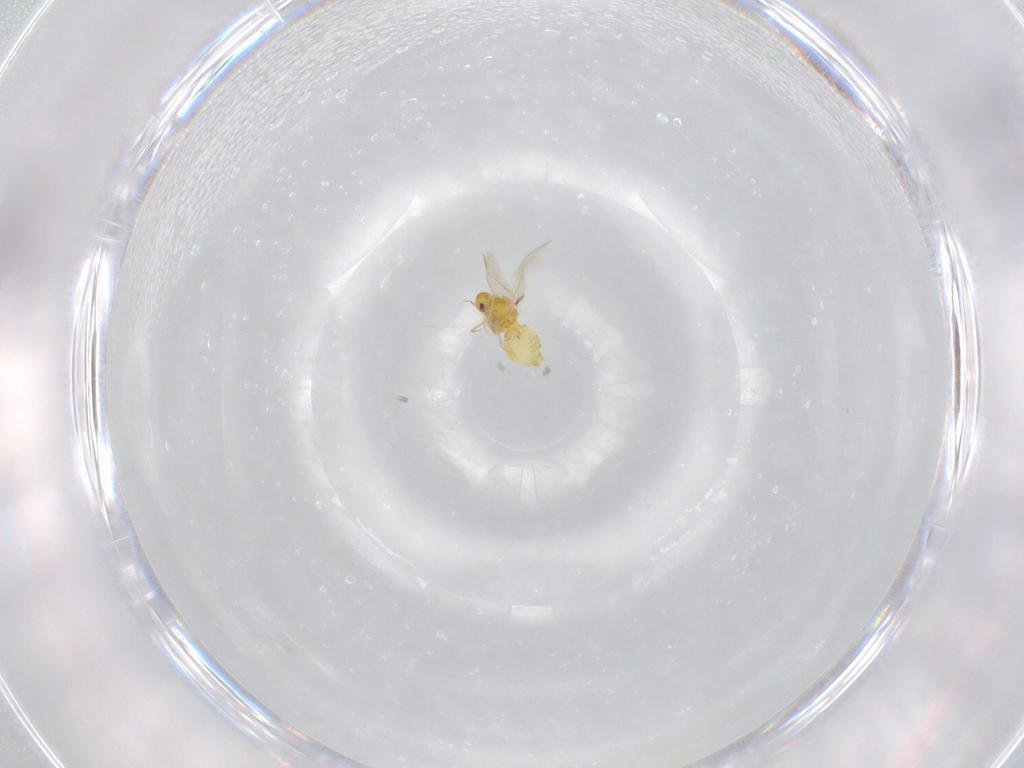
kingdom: Animalia
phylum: Arthropoda
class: Insecta
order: Hemiptera
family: Aleyrodidae
